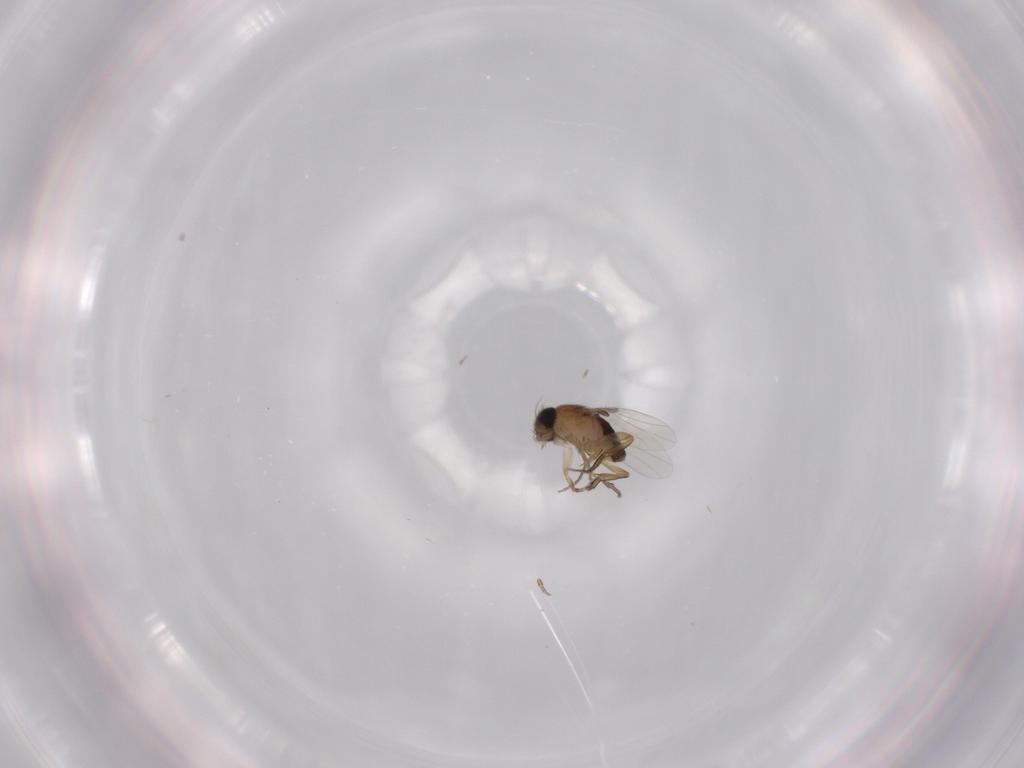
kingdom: Animalia
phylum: Arthropoda
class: Insecta
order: Diptera
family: Phoridae
